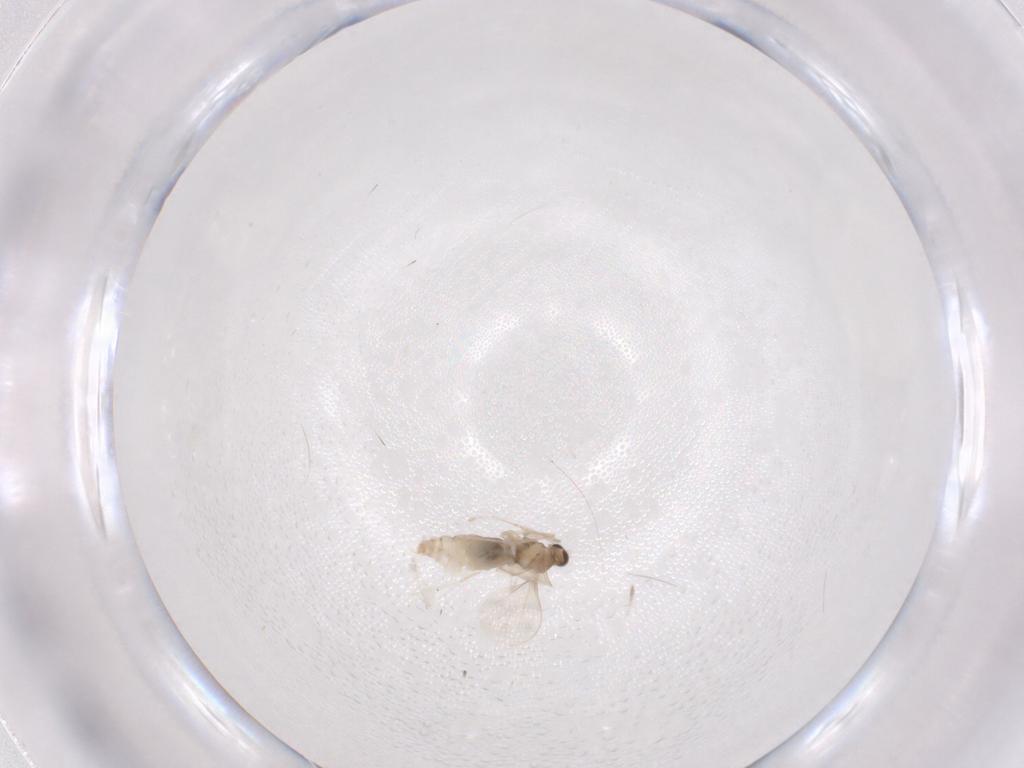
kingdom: Animalia
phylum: Arthropoda
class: Insecta
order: Diptera
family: Cecidomyiidae
